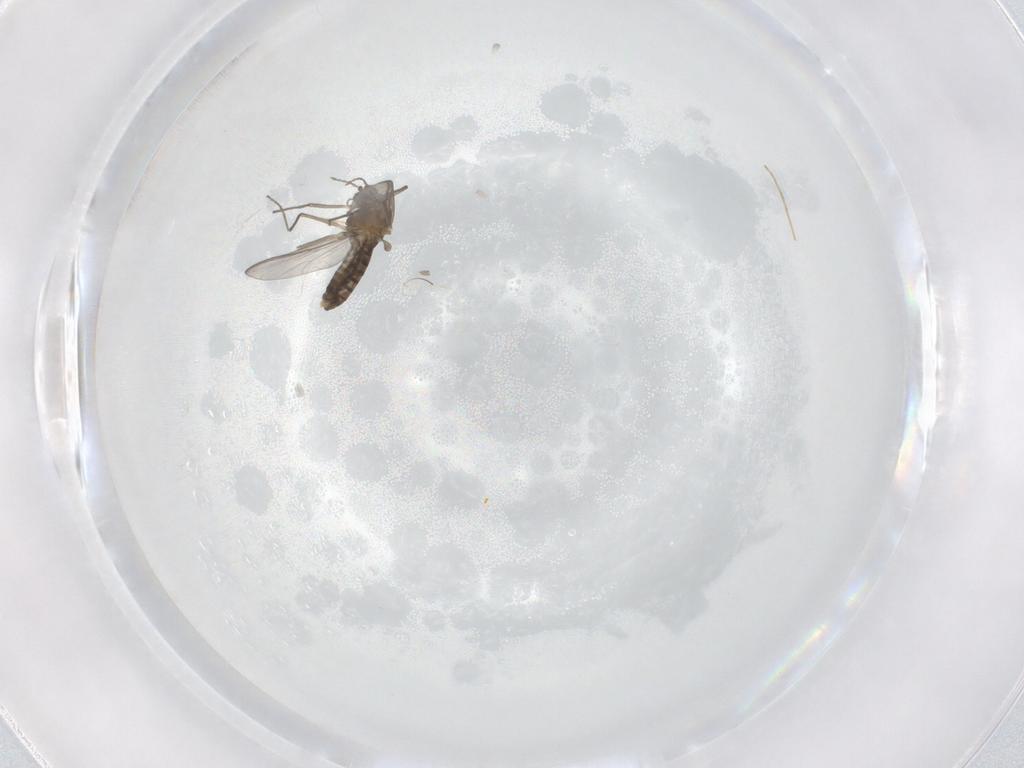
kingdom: Animalia
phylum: Arthropoda
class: Insecta
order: Diptera
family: Chironomidae
